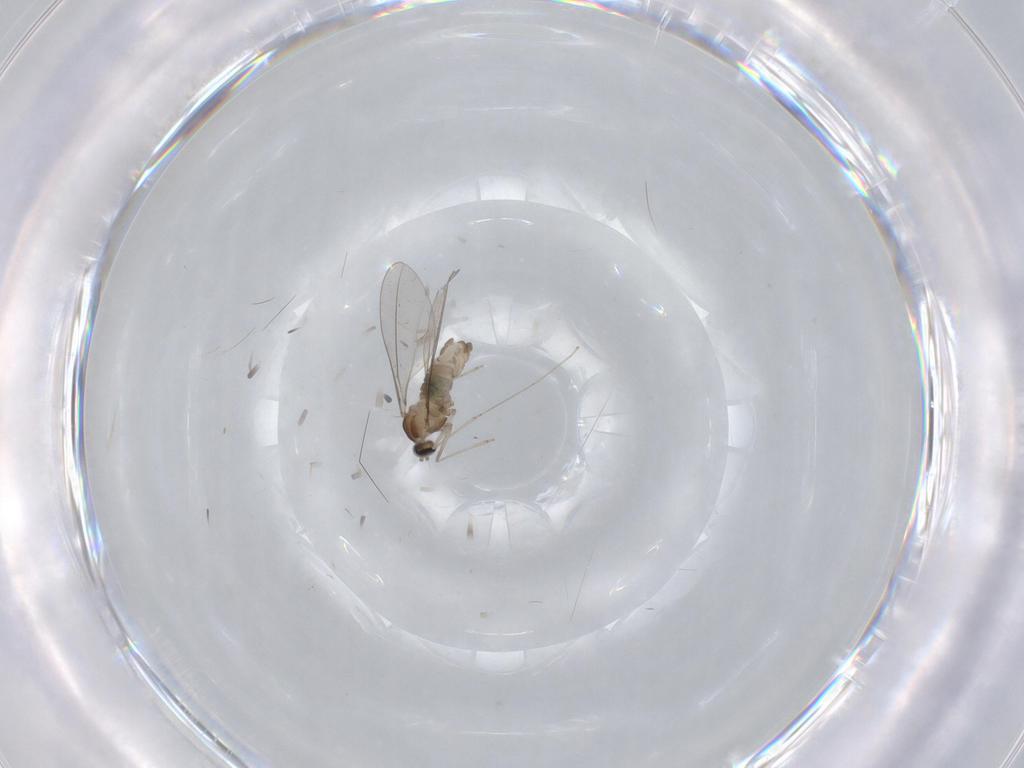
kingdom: Animalia
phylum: Arthropoda
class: Insecta
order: Diptera
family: Cecidomyiidae
